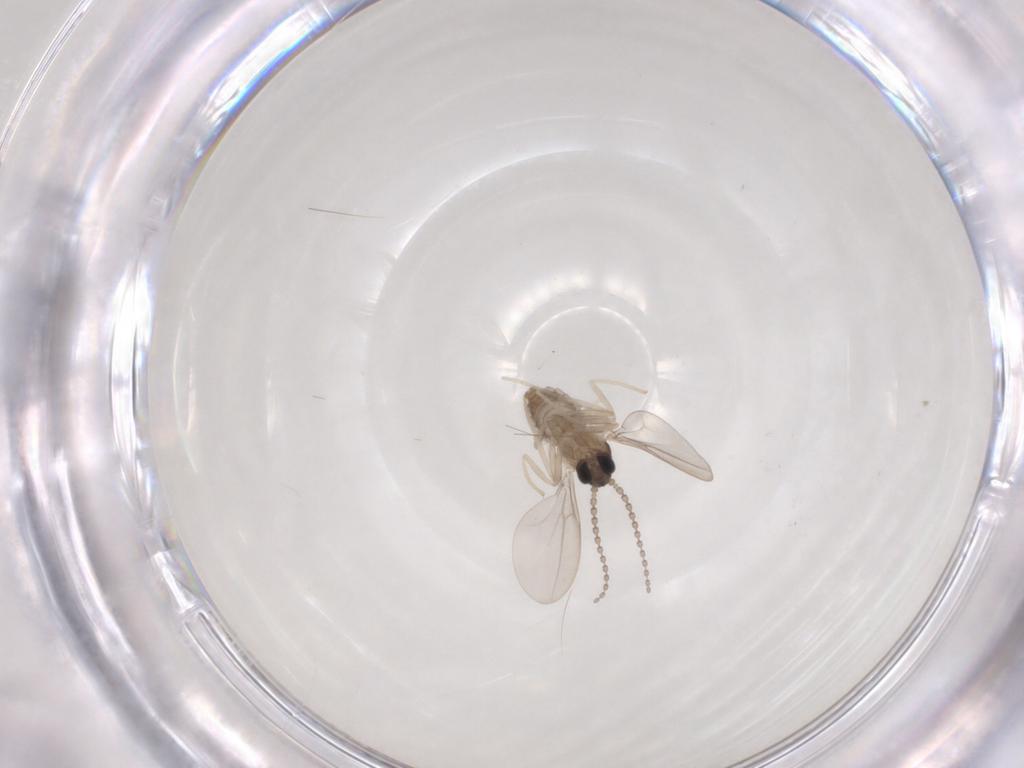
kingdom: Animalia
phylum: Arthropoda
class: Insecta
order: Diptera
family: Cecidomyiidae
